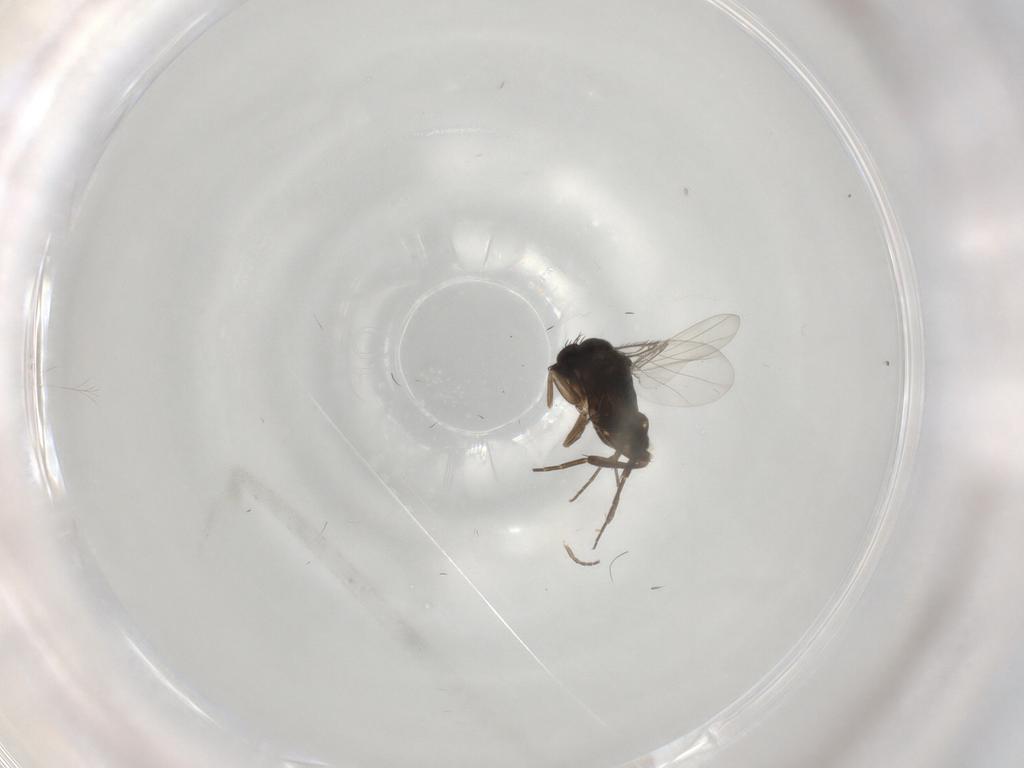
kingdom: Animalia
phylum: Arthropoda
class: Insecta
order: Diptera
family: Phoridae
